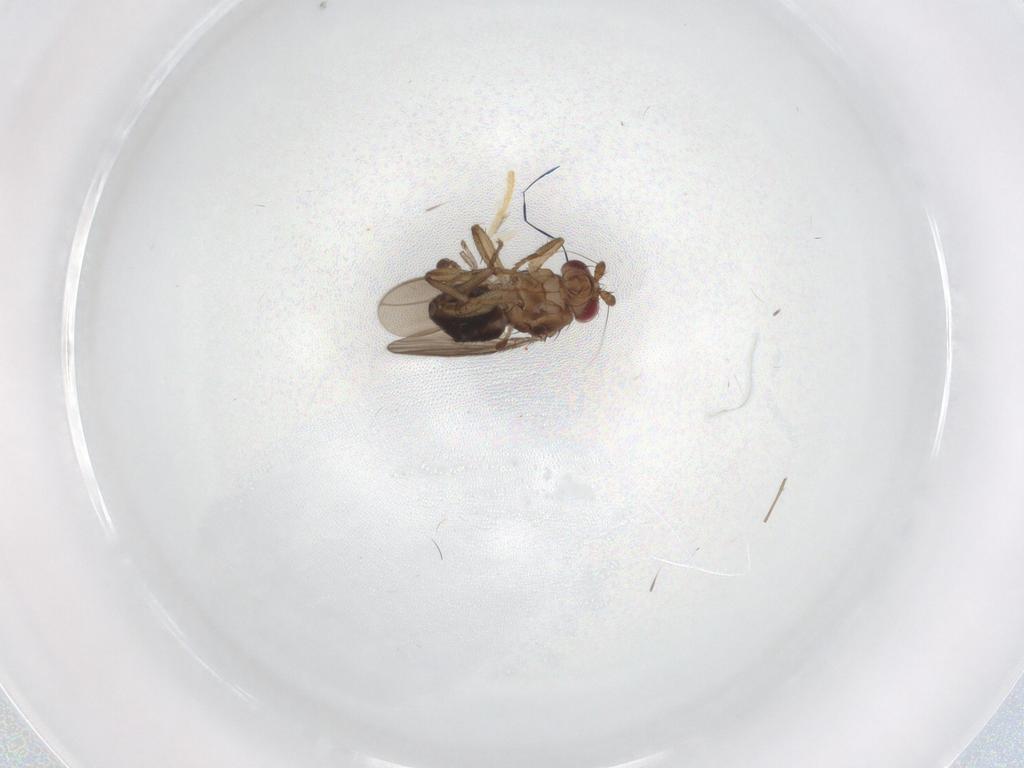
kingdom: Animalia
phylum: Arthropoda
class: Insecta
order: Diptera
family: Sphaeroceridae
